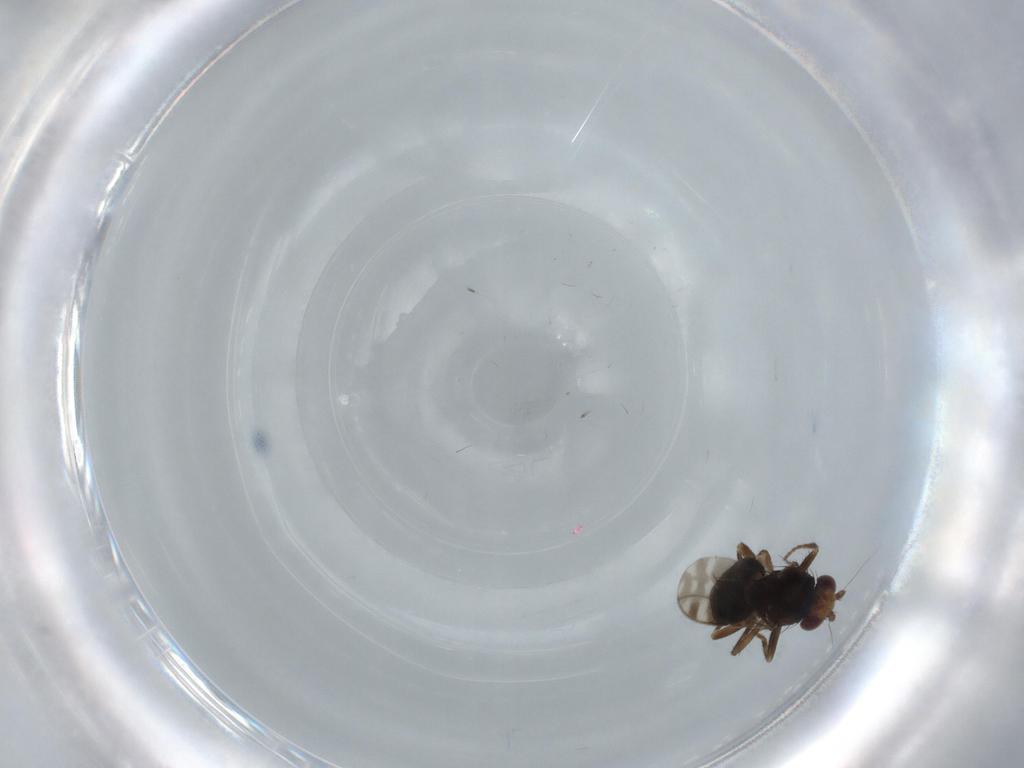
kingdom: Animalia
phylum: Arthropoda
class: Insecta
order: Diptera
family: Sphaeroceridae
